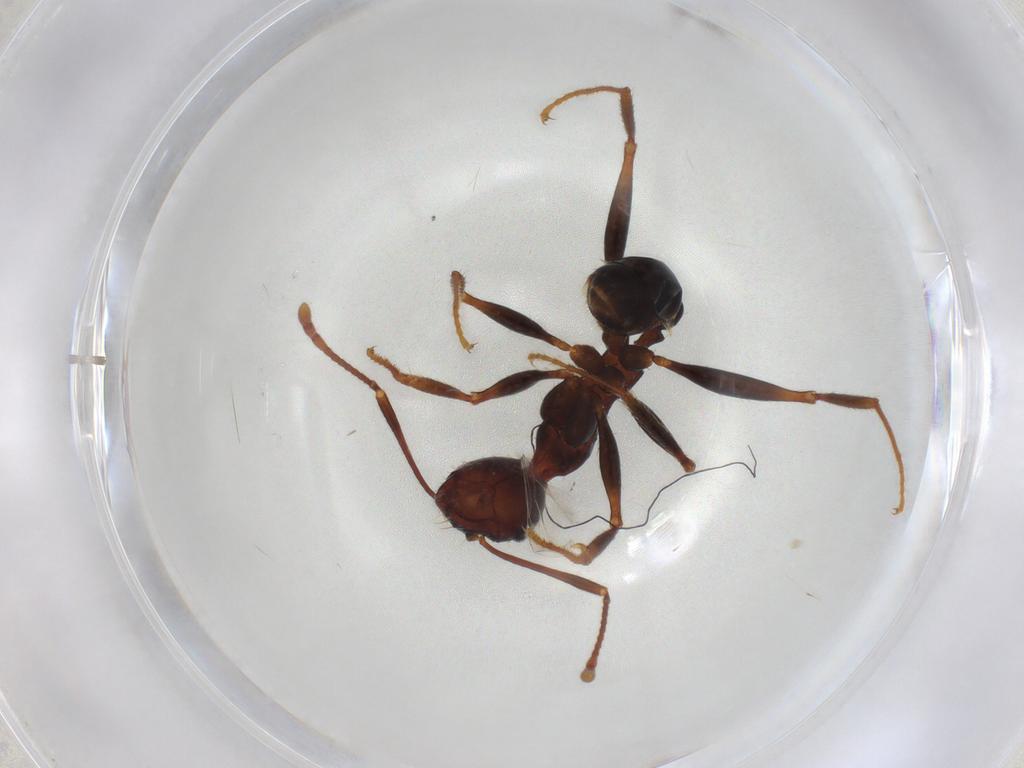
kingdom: Animalia
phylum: Arthropoda
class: Insecta
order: Hymenoptera
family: Formicidae
